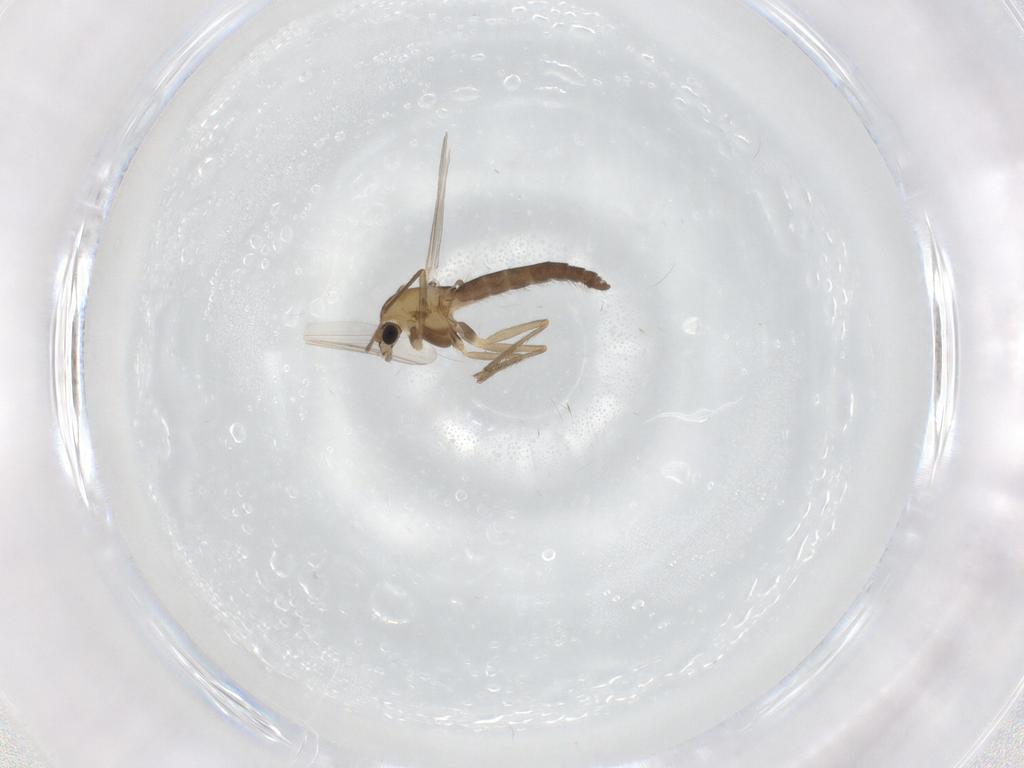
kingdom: Animalia
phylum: Arthropoda
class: Insecta
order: Diptera
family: Chironomidae
